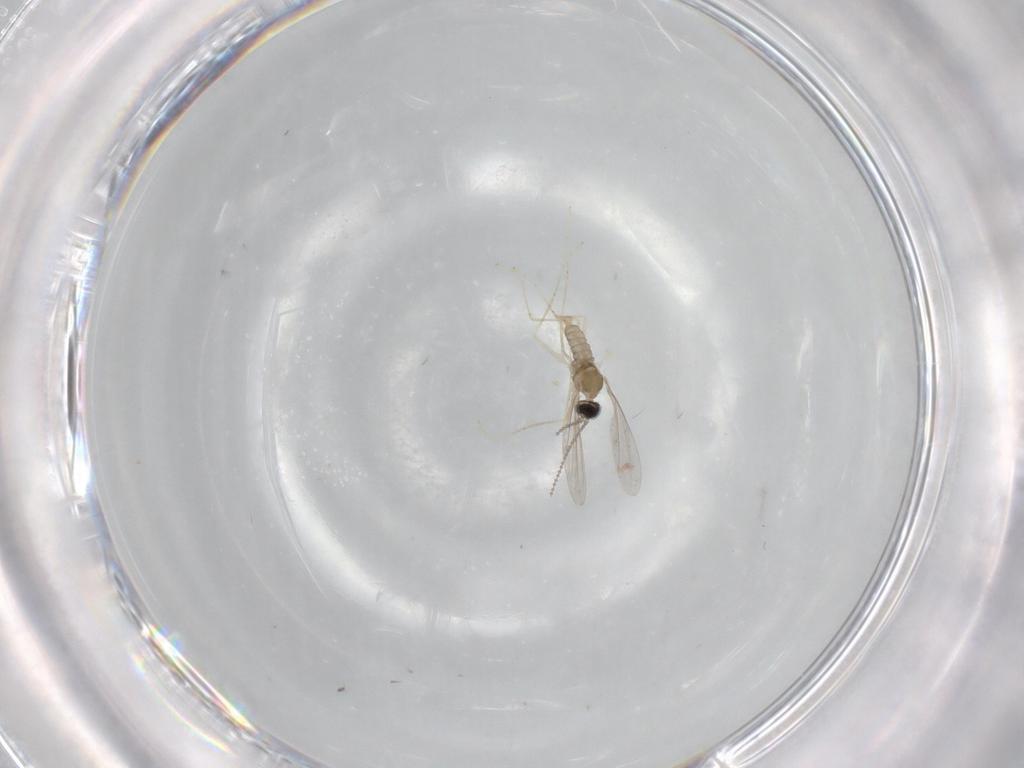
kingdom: Animalia
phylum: Arthropoda
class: Insecta
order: Diptera
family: Cecidomyiidae
